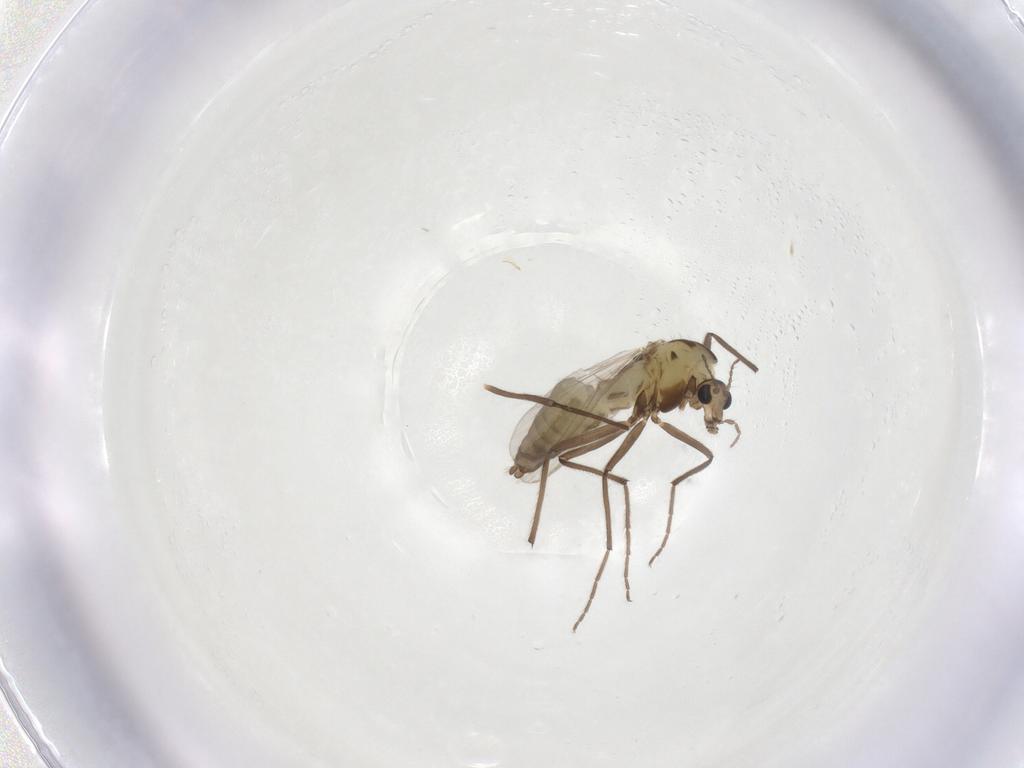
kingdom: Animalia
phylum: Arthropoda
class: Insecta
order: Diptera
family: Chironomidae
